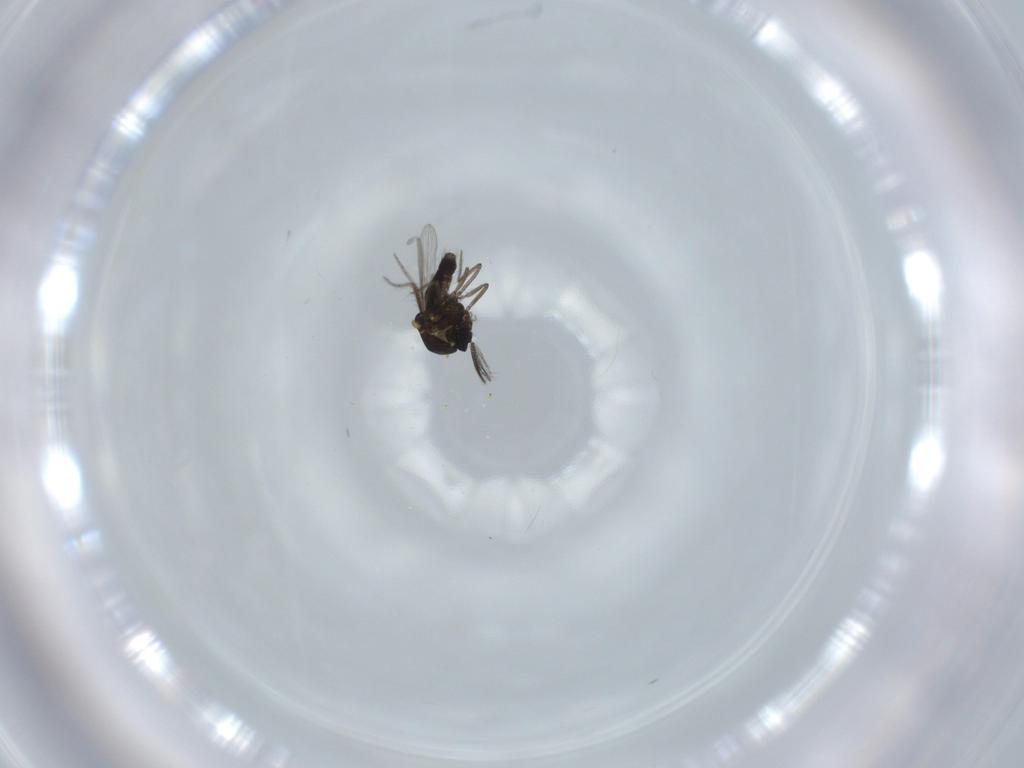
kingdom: Animalia
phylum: Arthropoda
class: Insecta
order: Diptera
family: Ceratopogonidae
